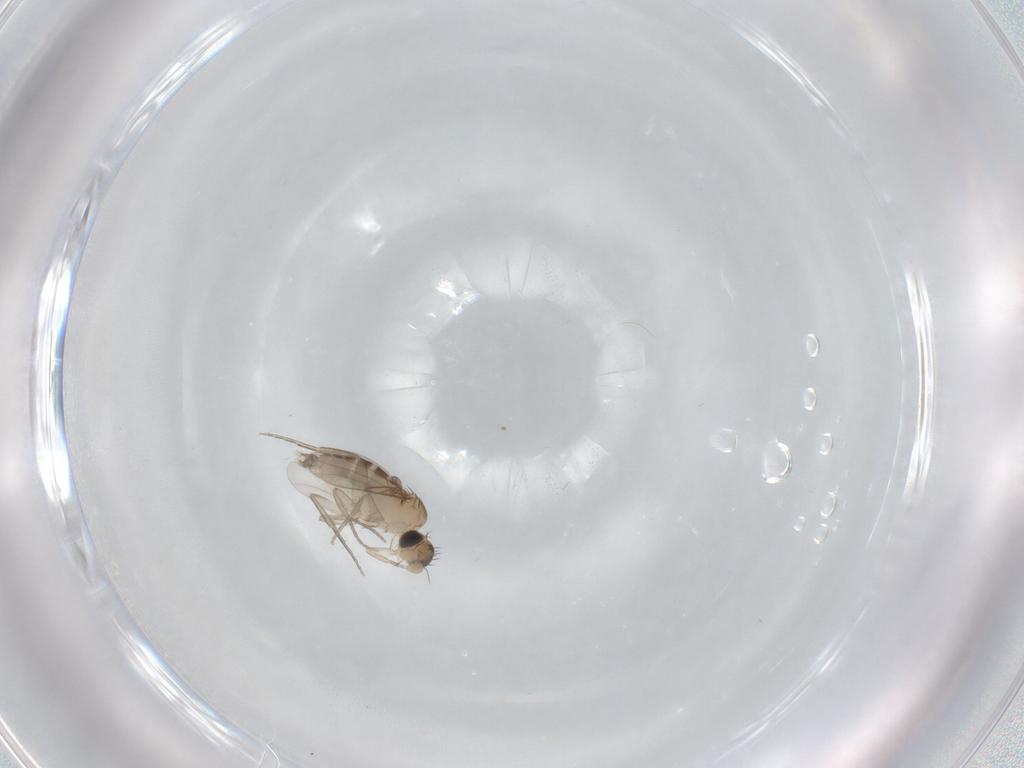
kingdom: Animalia
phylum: Arthropoda
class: Insecta
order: Diptera
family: Phoridae
